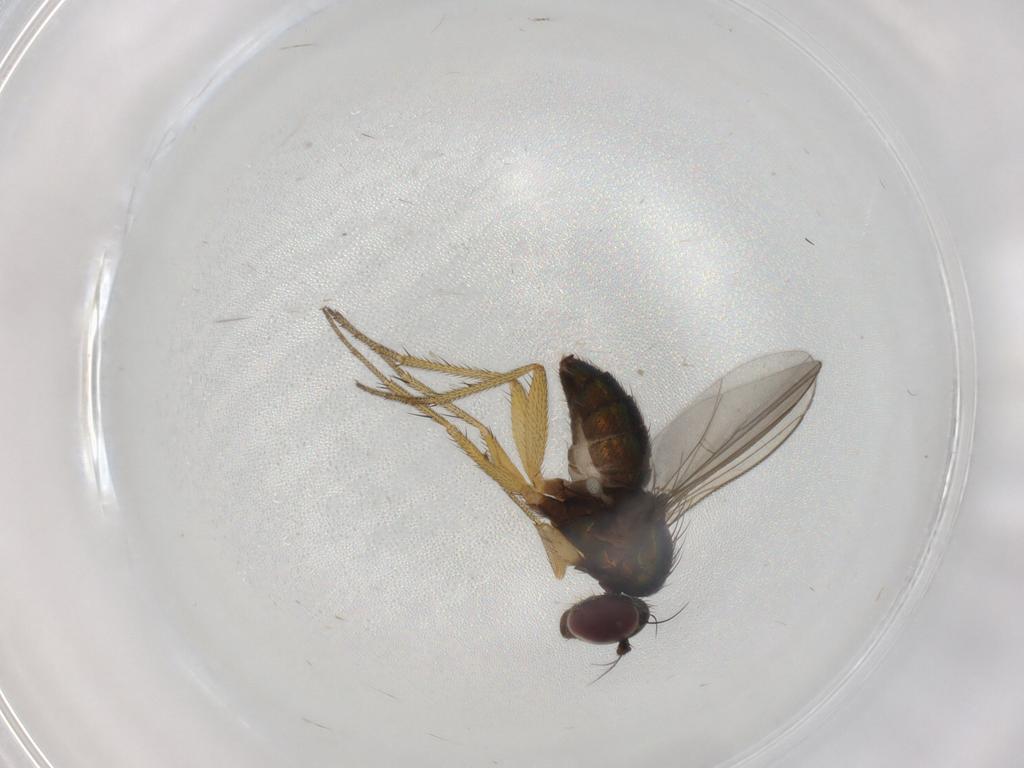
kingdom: Animalia
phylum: Arthropoda
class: Insecta
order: Diptera
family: Dolichopodidae
